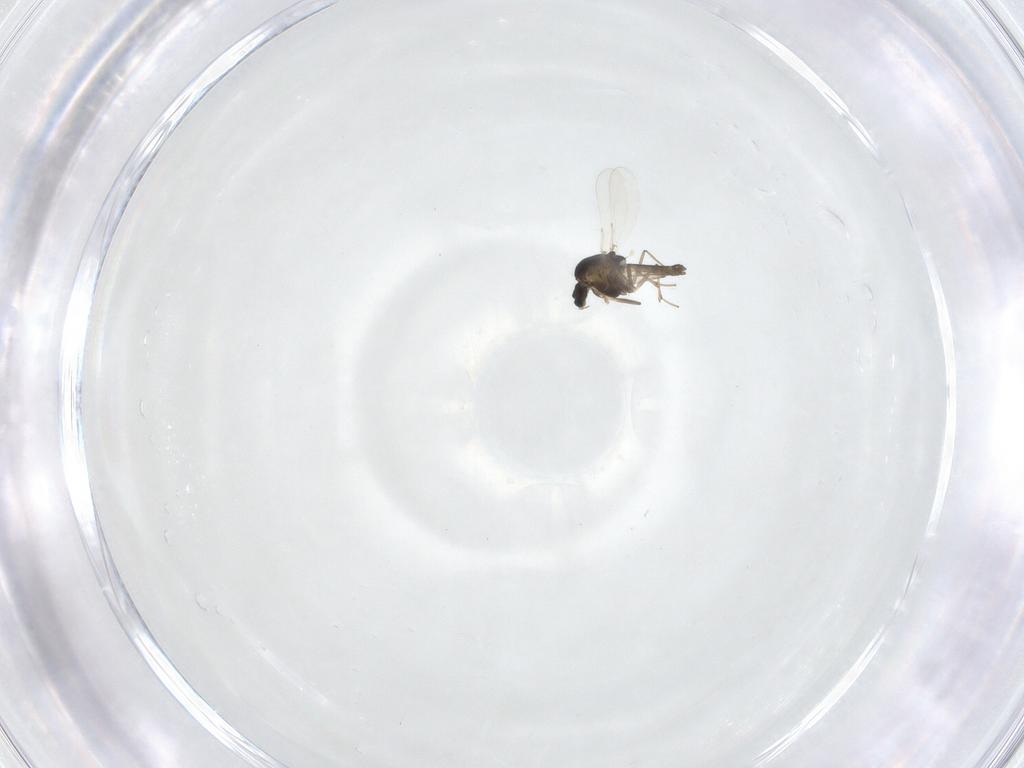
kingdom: Animalia
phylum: Arthropoda
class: Insecta
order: Diptera
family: Chironomidae
